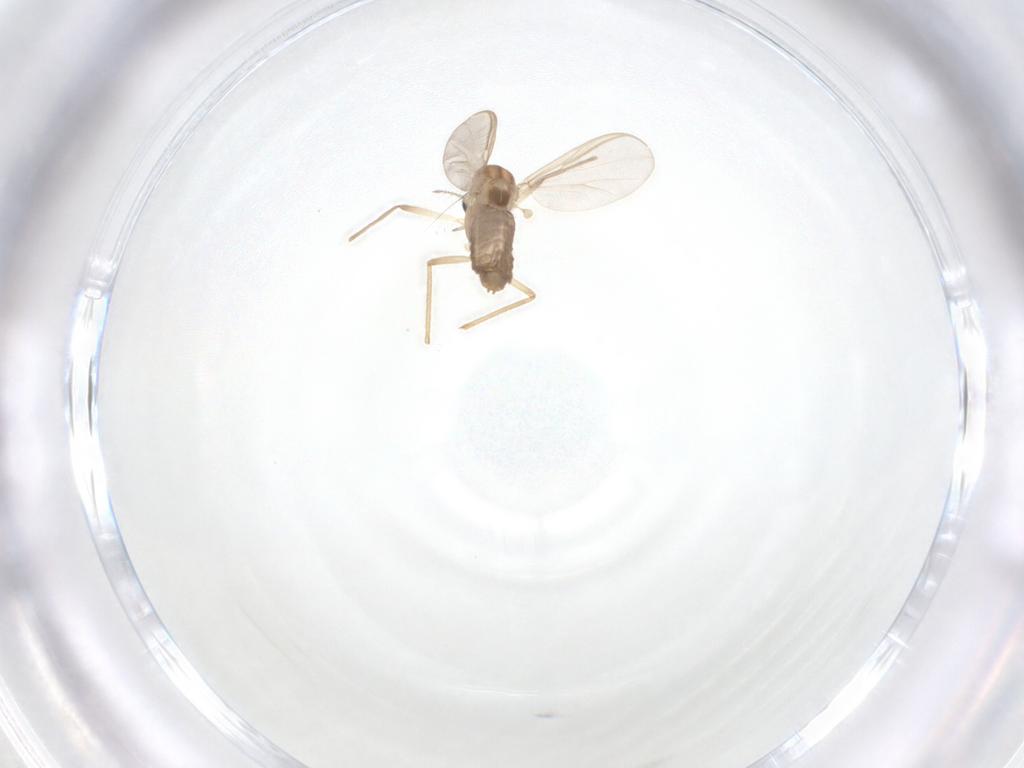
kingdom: Animalia
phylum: Arthropoda
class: Insecta
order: Diptera
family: Chironomidae
